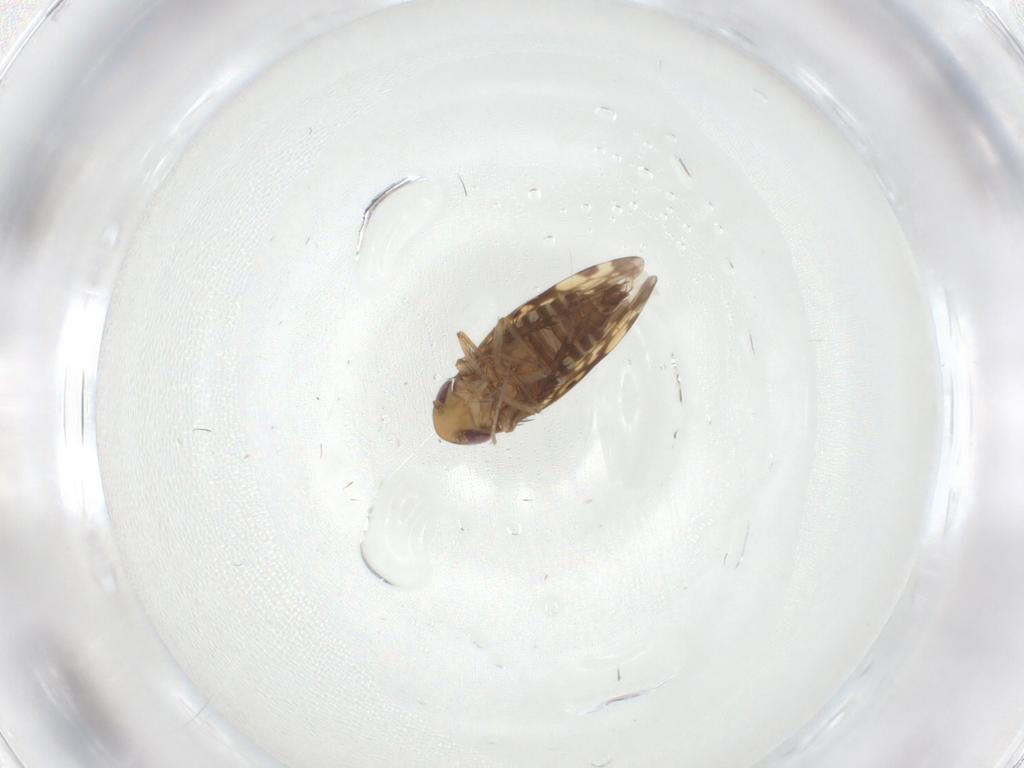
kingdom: Animalia
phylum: Arthropoda
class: Insecta
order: Hemiptera
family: Cicadellidae
